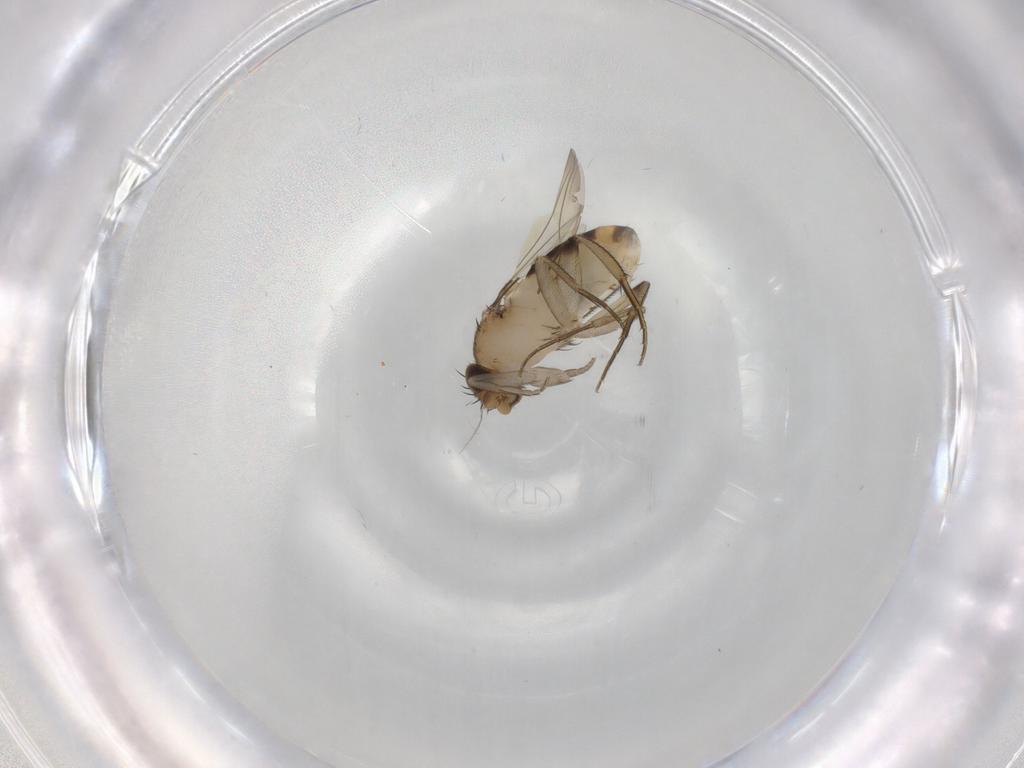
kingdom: Animalia
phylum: Arthropoda
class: Insecta
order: Diptera
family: Phoridae
